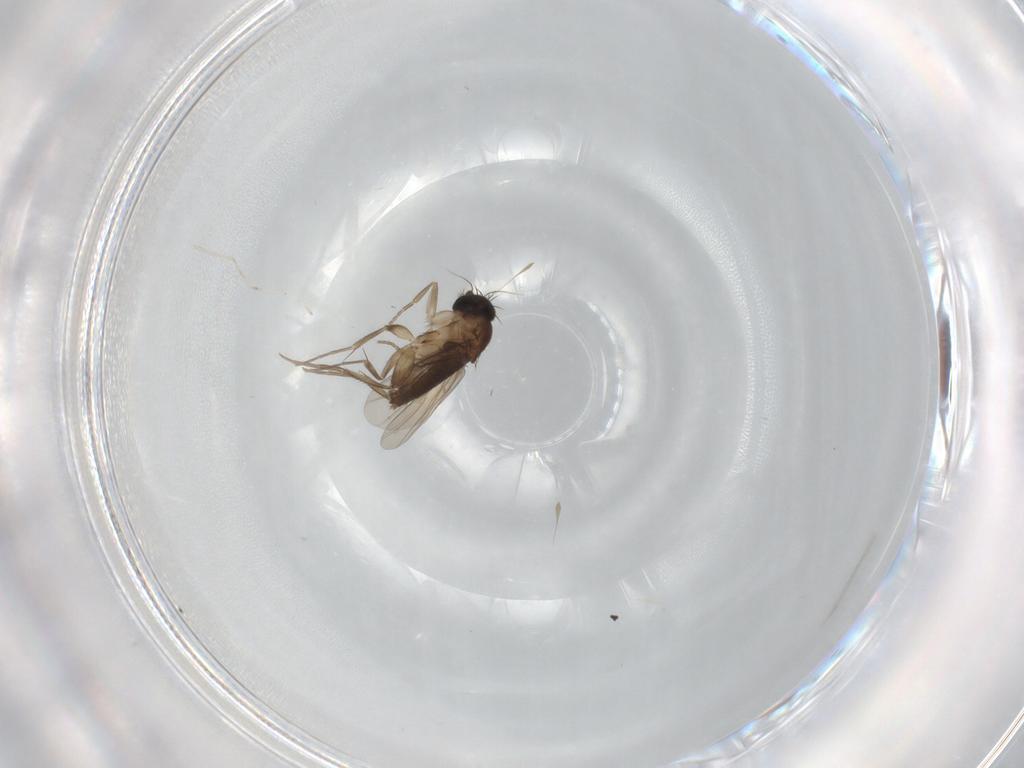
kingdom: Animalia
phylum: Arthropoda
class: Insecta
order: Diptera
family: Phoridae
